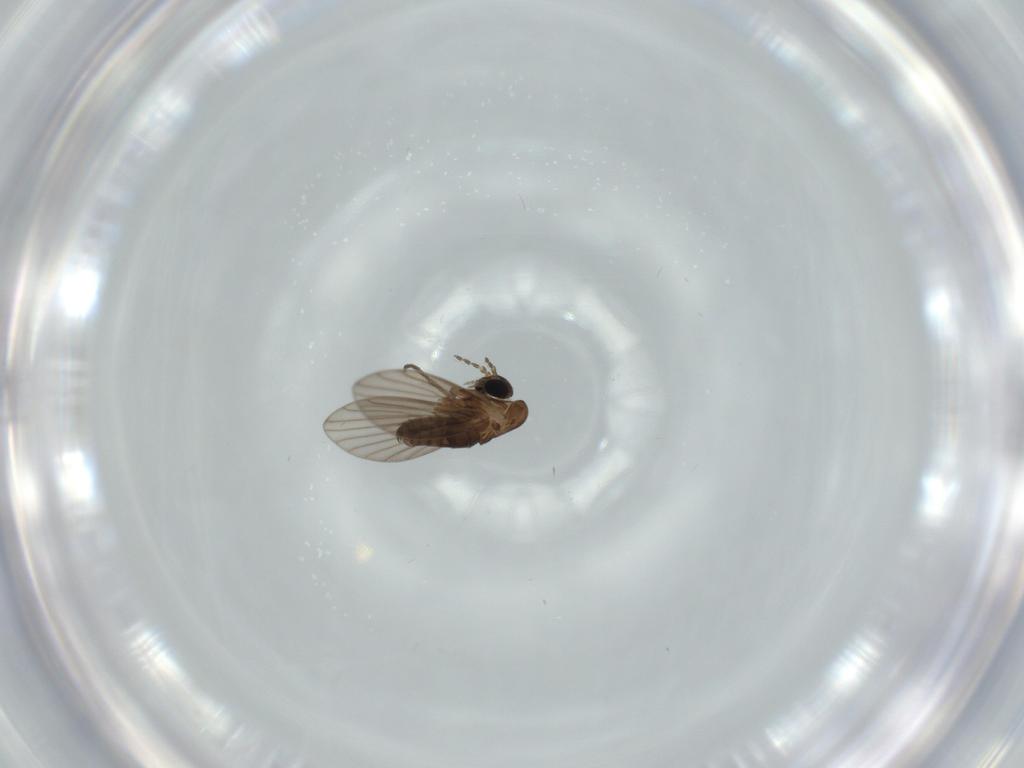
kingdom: Animalia
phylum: Arthropoda
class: Insecta
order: Diptera
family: Psychodidae
